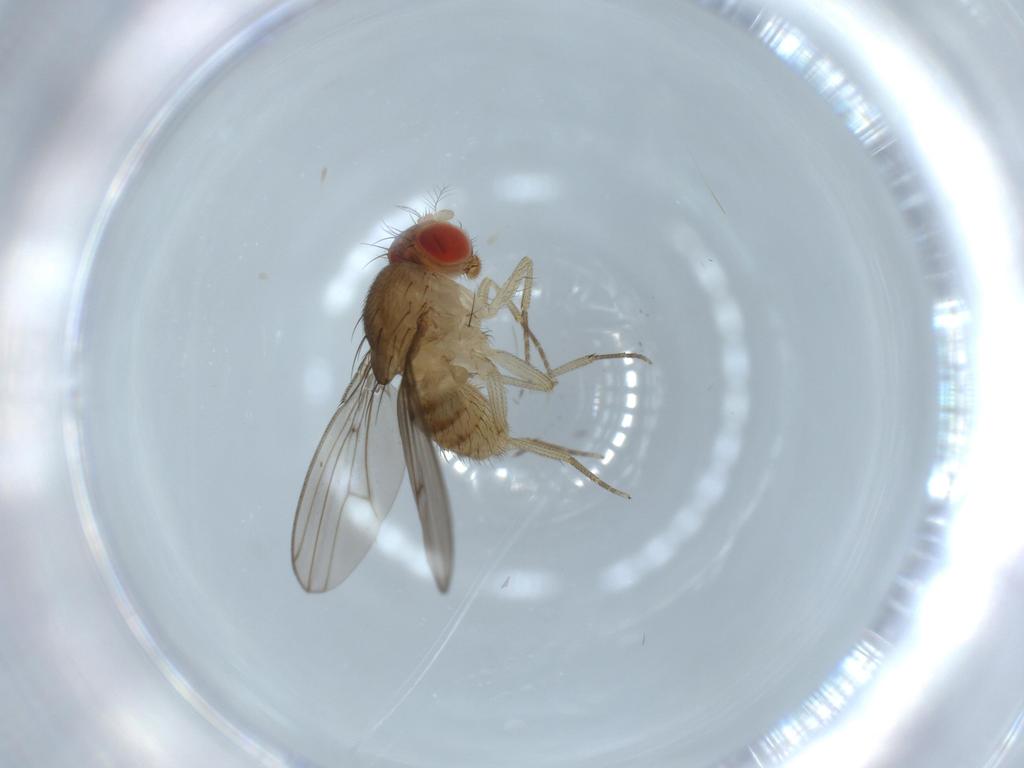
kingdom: Animalia
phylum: Arthropoda
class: Insecta
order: Diptera
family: Drosophilidae
